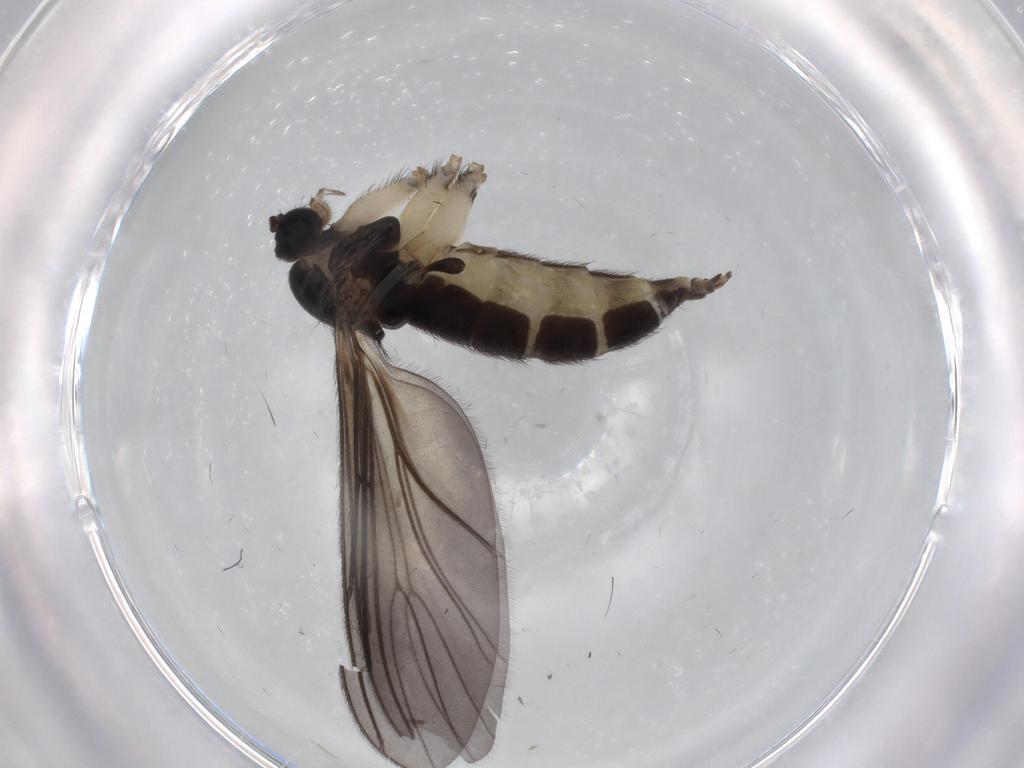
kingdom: Animalia
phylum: Arthropoda
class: Insecta
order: Diptera
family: Sciaridae
